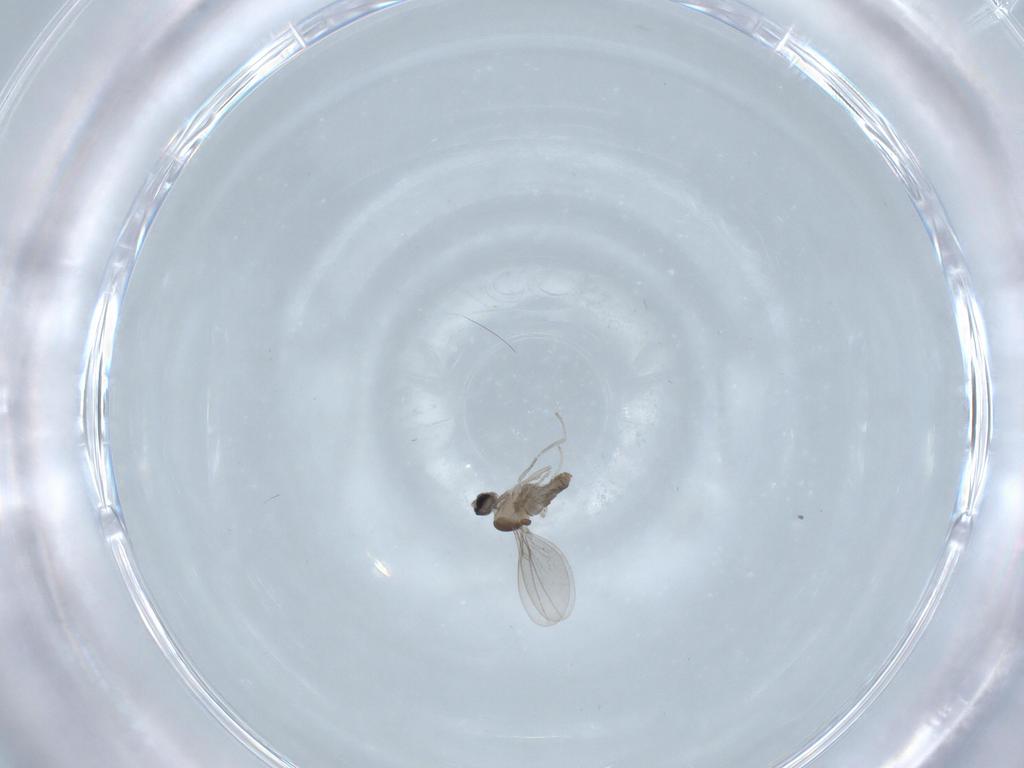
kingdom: Animalia
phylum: Arthropoda
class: Insecta
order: Diptera
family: Cecidomyiidae
